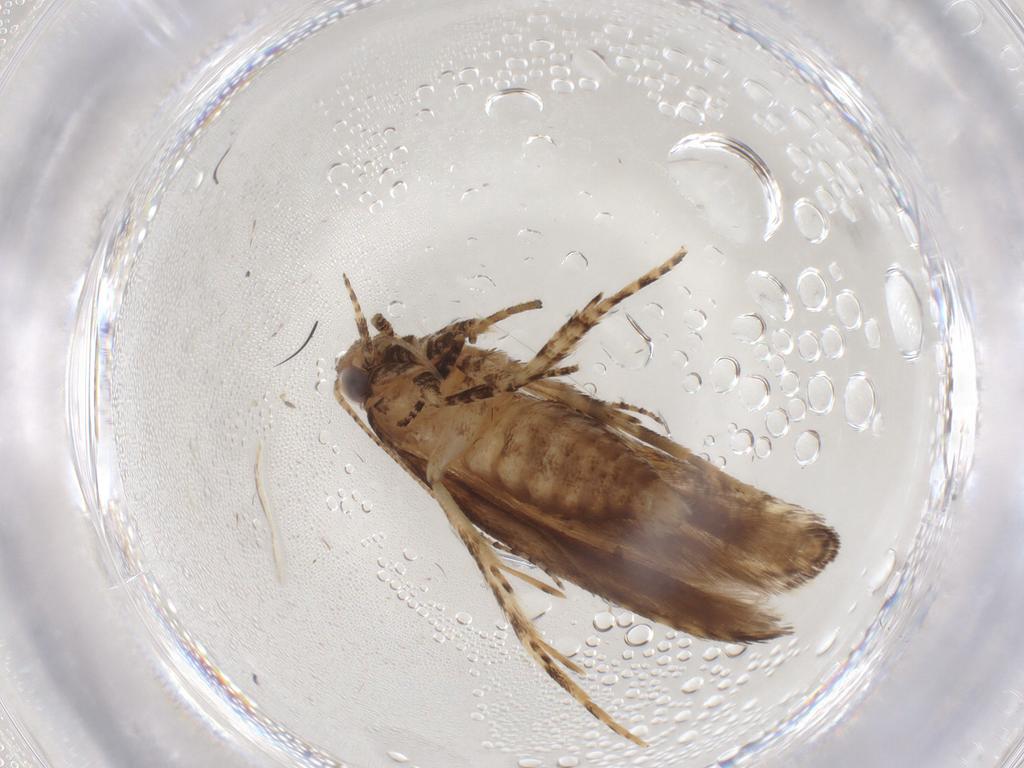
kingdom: Animalia
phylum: Arthropoda
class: Insecta
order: Lepidoptera
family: Gelechiidae
